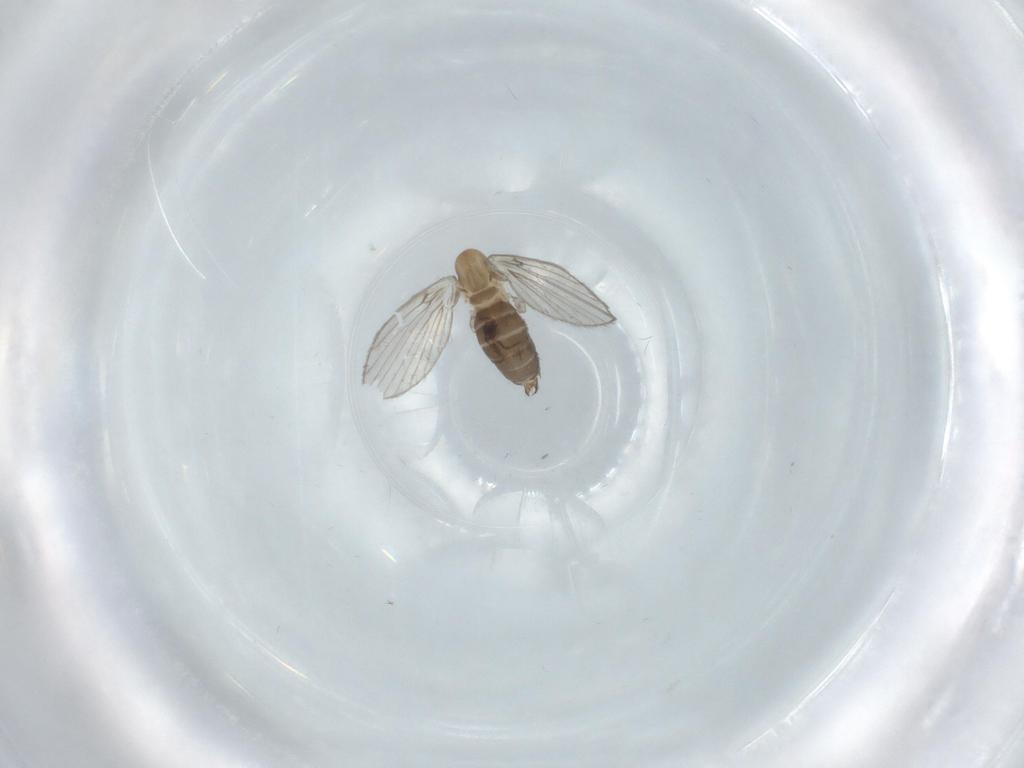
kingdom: Animalia
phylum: Arthropoda
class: Insecta
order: Diptera
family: Psychodidae
